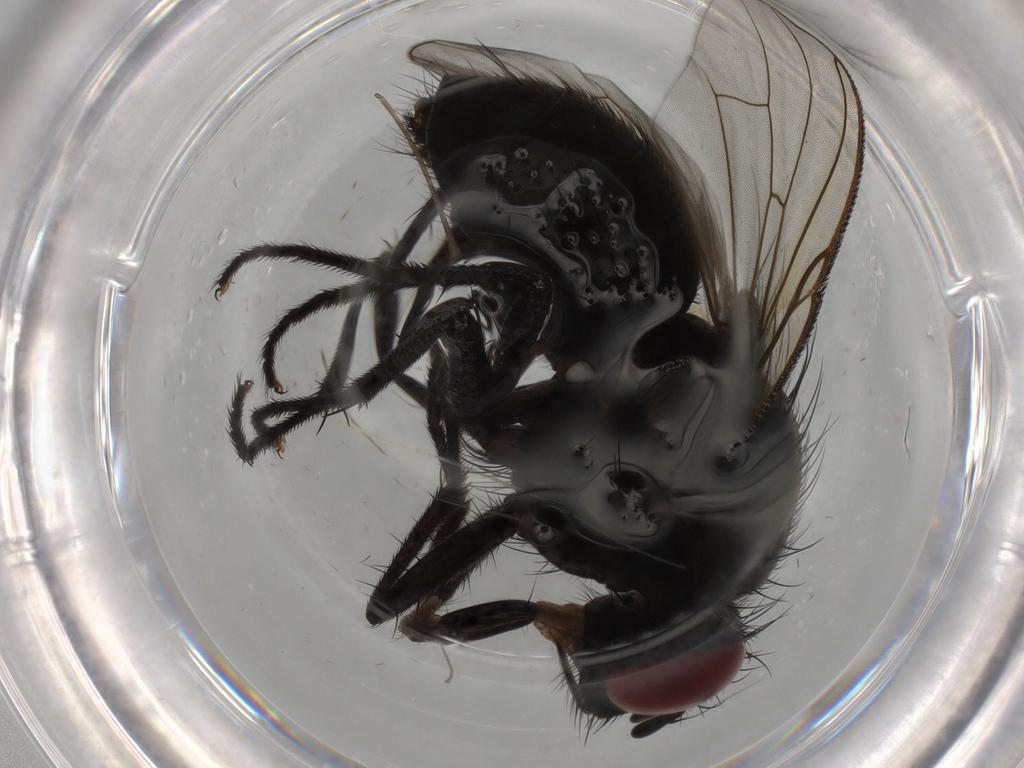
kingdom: Animalia
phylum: Arthropoda
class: Insecta
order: Diptera
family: Muscidae
